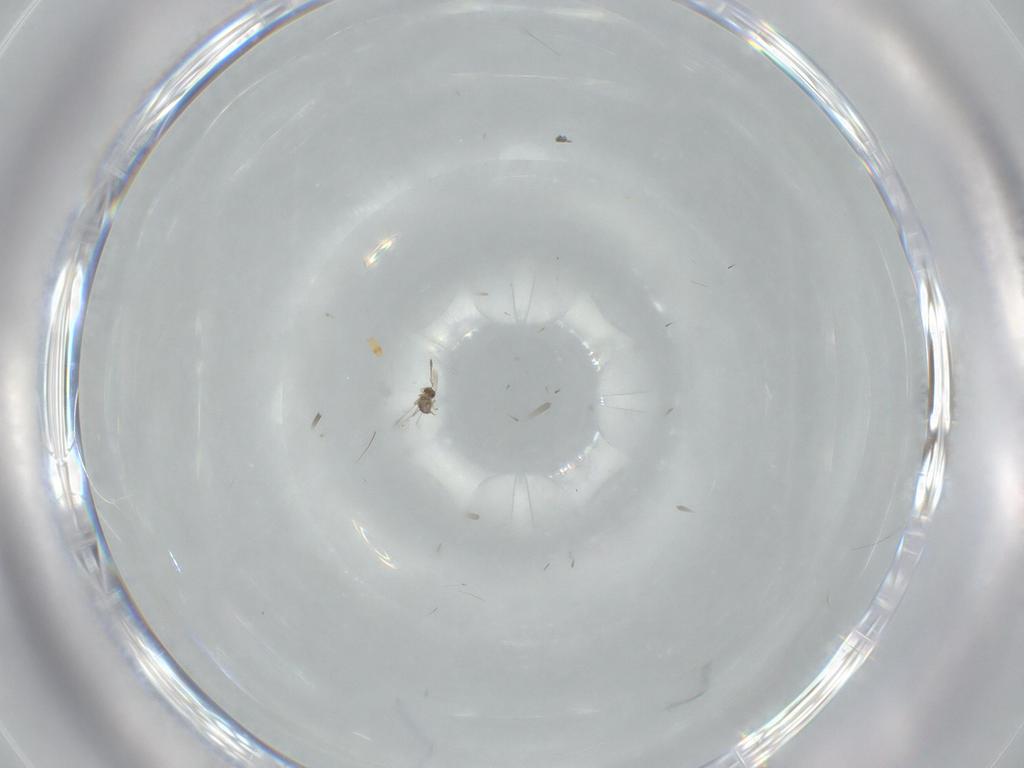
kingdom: Animalia
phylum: Arthropoda
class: Insecta
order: Hymenoptera
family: Mymaridae
